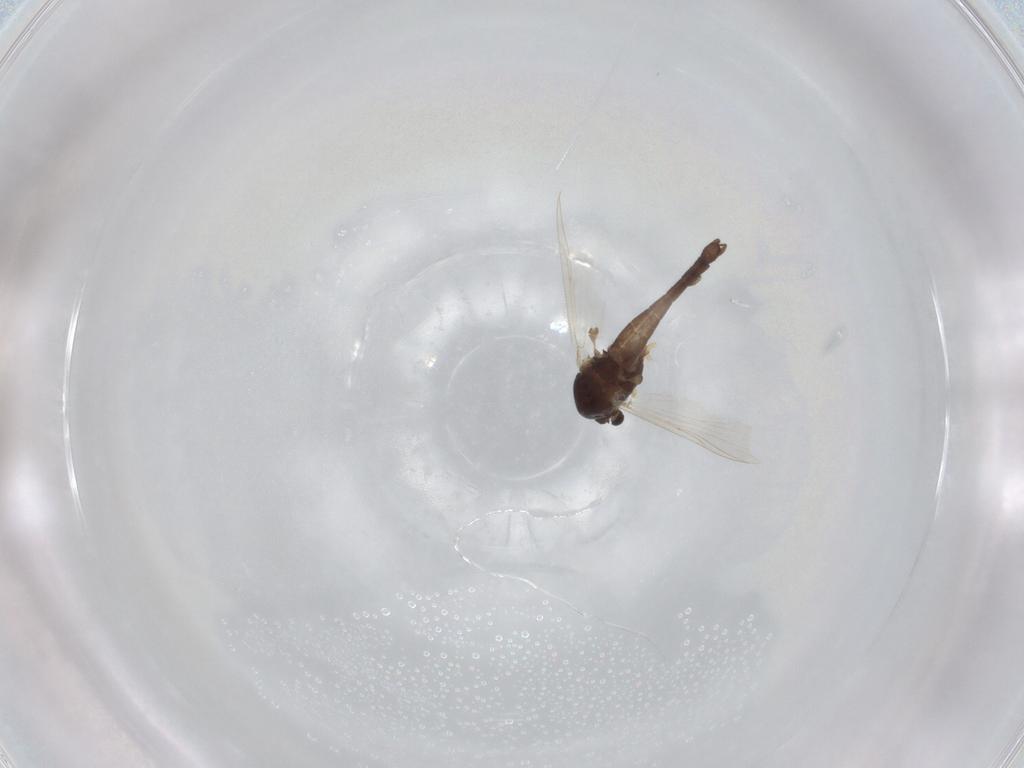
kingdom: Animalia
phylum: Arthropoda
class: Insecta
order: Diptera
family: Chironomidae
